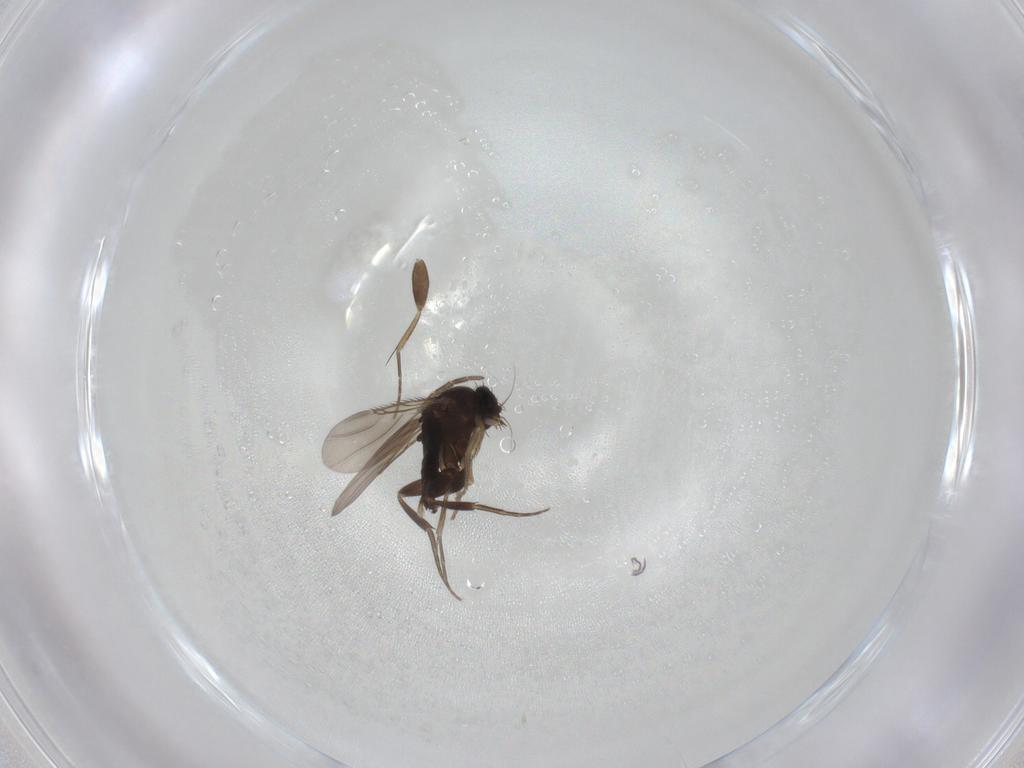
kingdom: Animalia
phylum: Arthropoda
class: Insecta
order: Diptera
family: Phoridae
